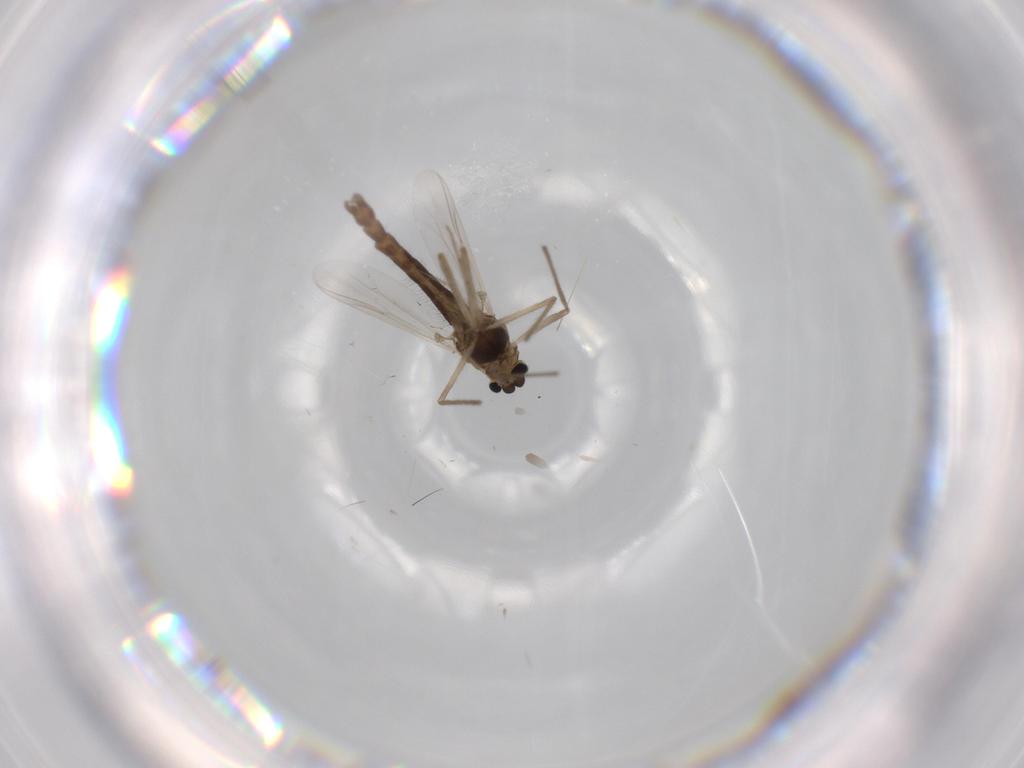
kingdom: Animalia
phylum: Arthropoda
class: Insecta
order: Diptera
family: Chironomidae
